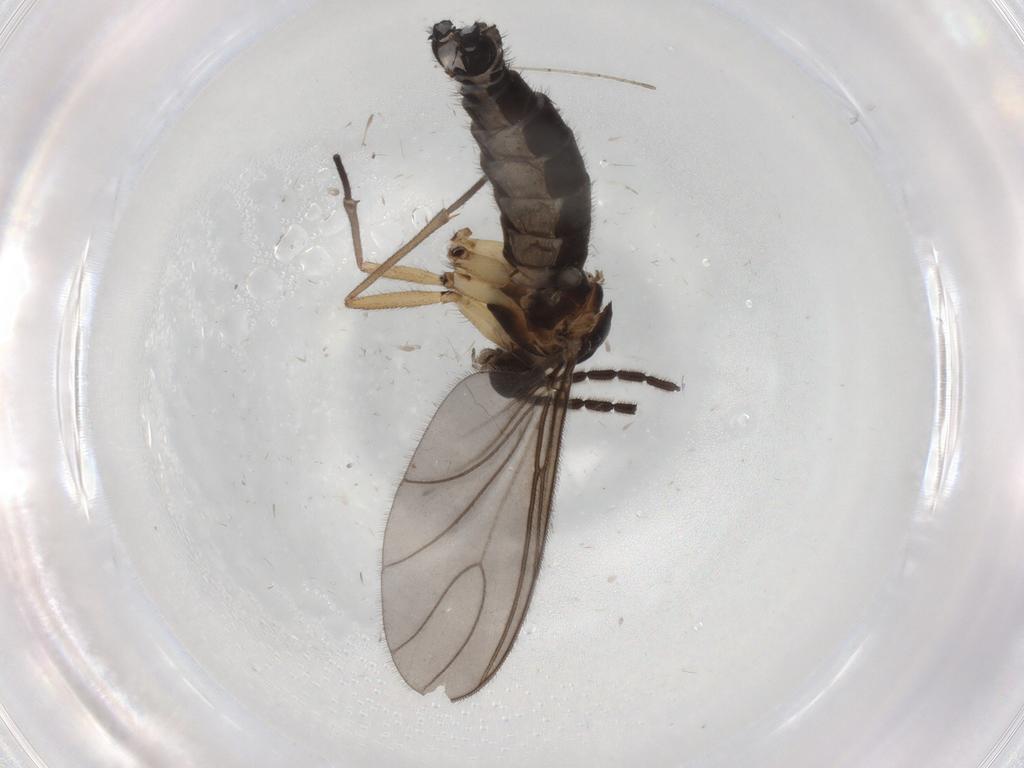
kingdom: Animalia
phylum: Arthropoda
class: Insecta
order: Diptera
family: Sciaridae
